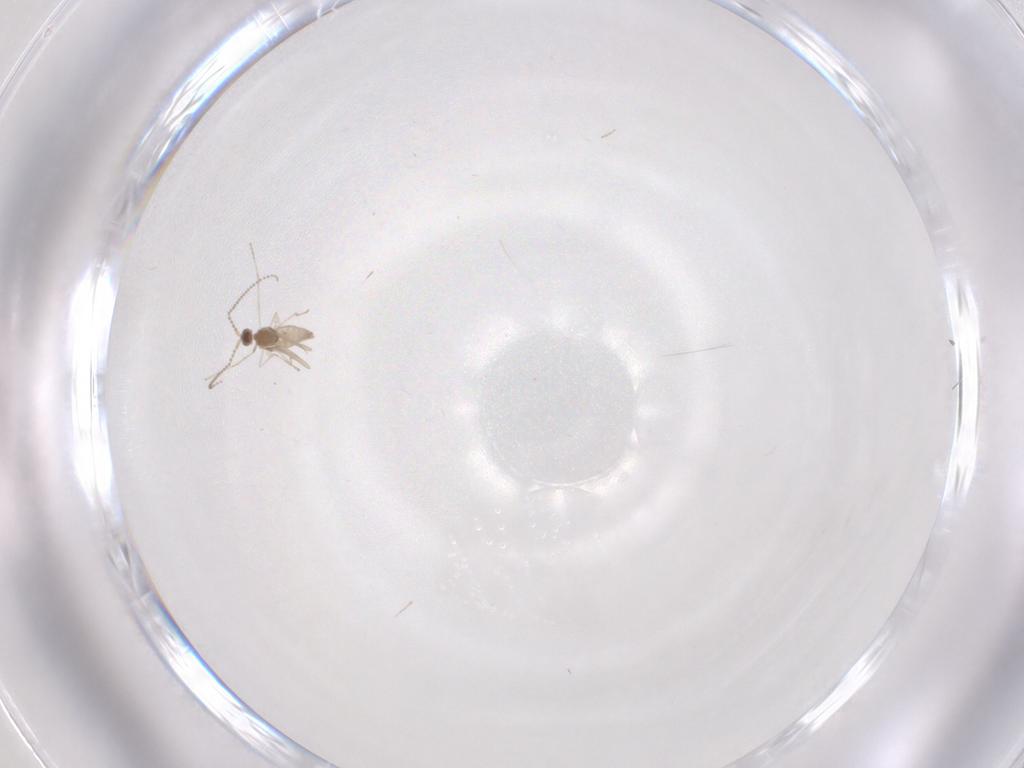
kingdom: Animalia
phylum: Arthropoda
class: Insecta
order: Diptera
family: Cecidomyiidae
